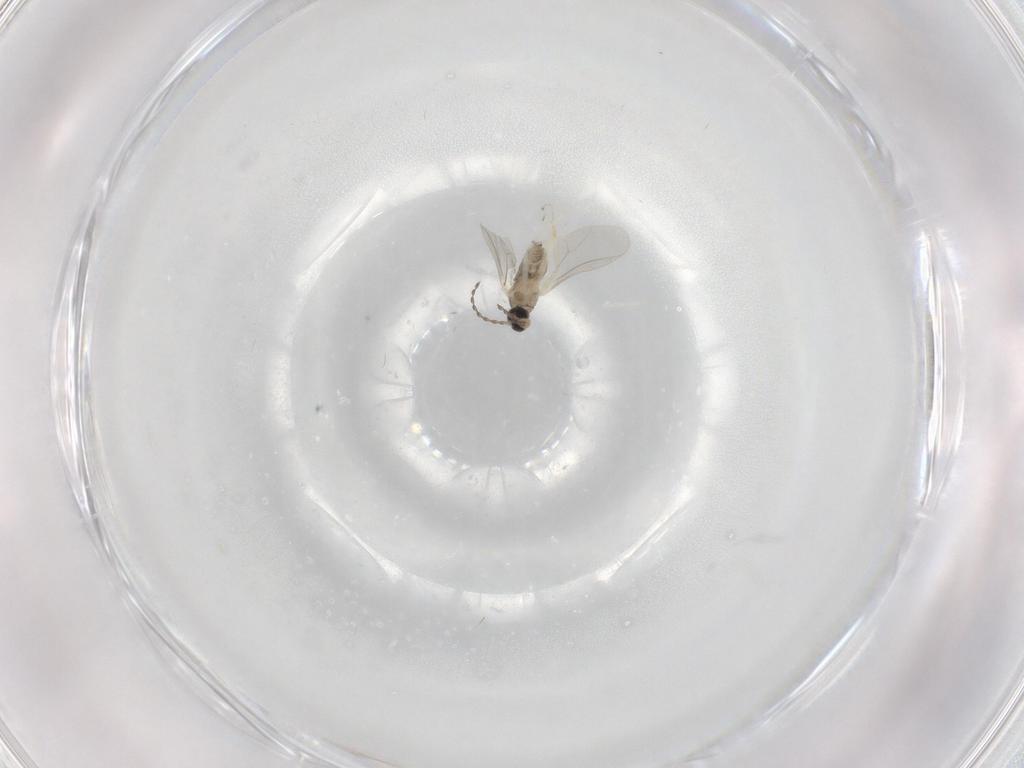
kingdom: Animalia
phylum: Arthropoda
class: Insecta
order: Diptera
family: Cecidomyiidae
